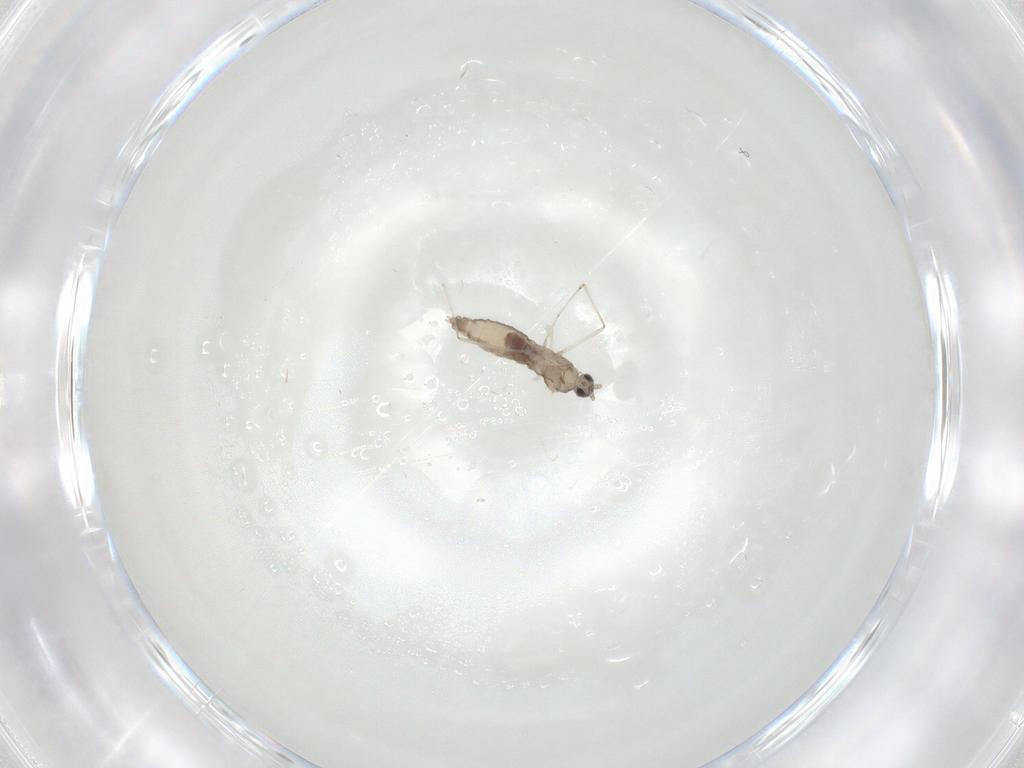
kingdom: Animalia
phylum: Arthropoda
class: Insecta
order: Diptera
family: Cecidomyiidae
